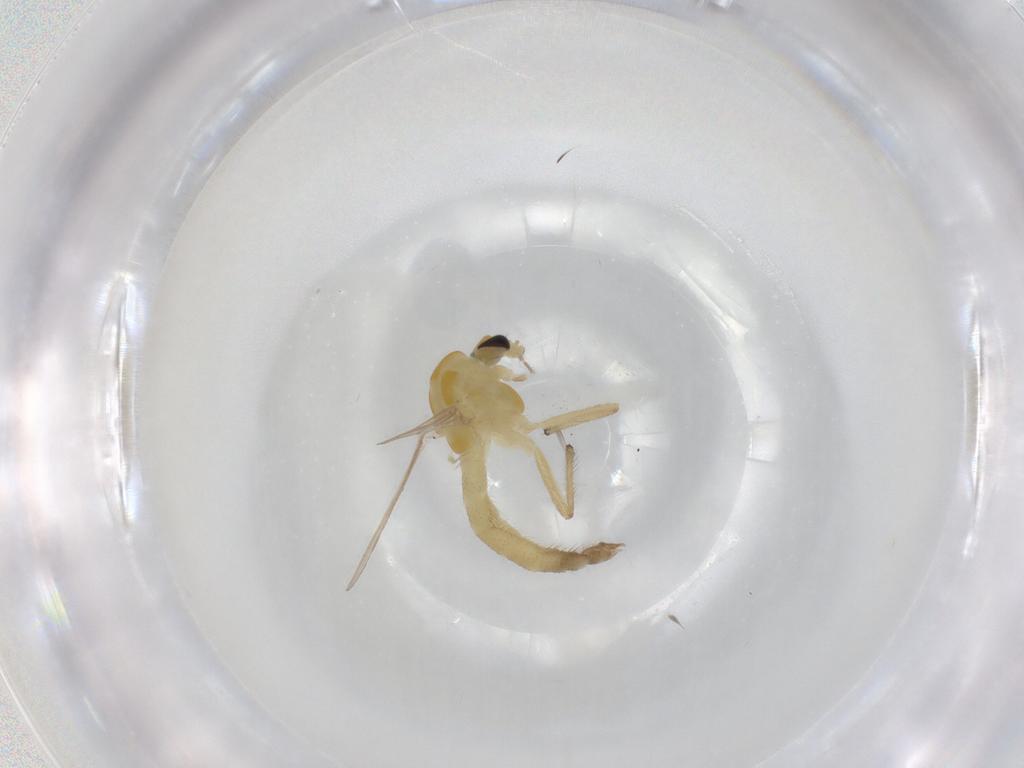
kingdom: Animalia
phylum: Arthropoda
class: Insecta
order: Diptera
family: Chironomidae
